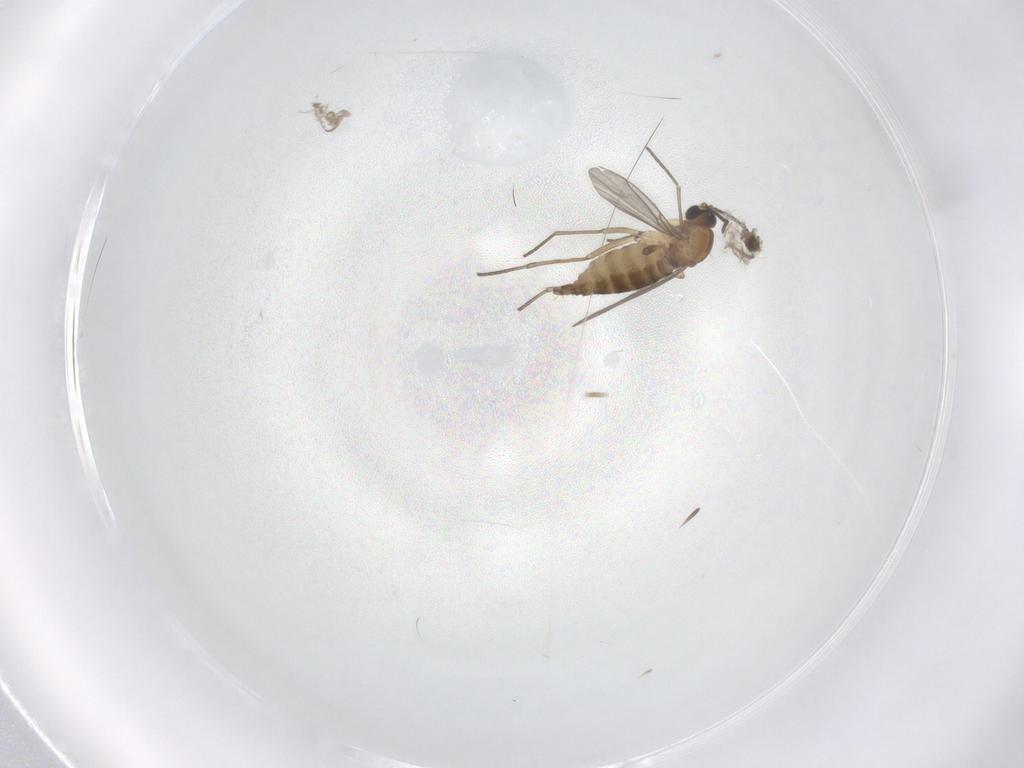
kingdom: Animalia
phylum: Arthropoda
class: Insecta
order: Diptera
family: Sciaridae
